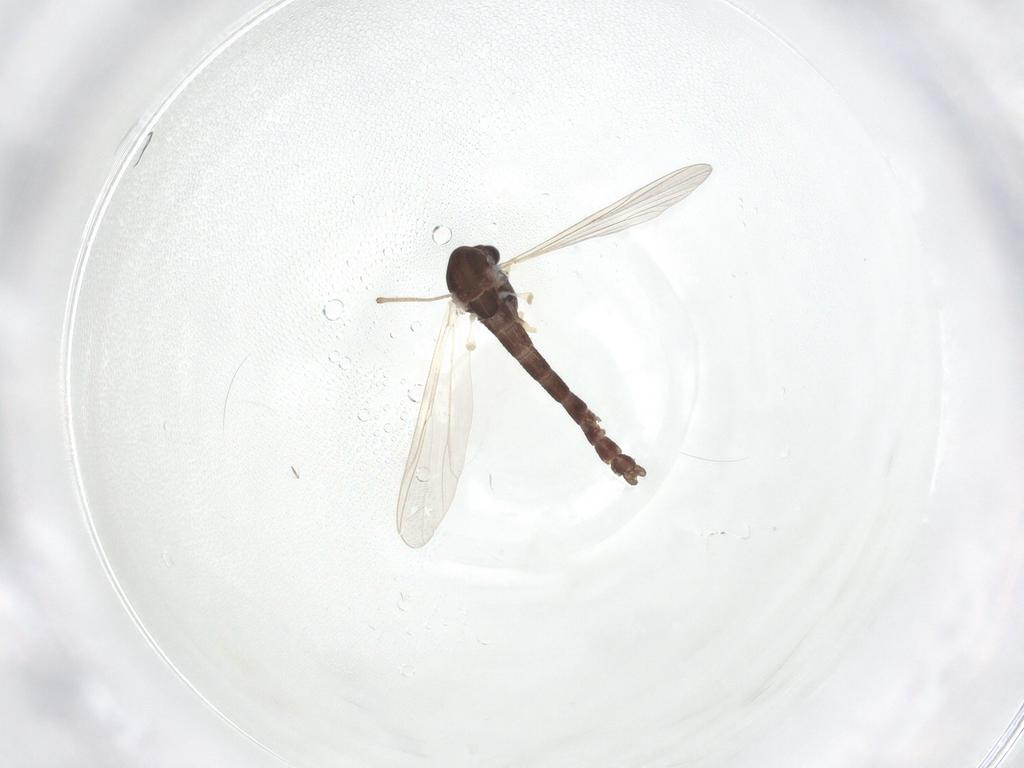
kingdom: Animalia
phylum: Arthropoda
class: Insecta
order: Diptera
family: Chironomidae
